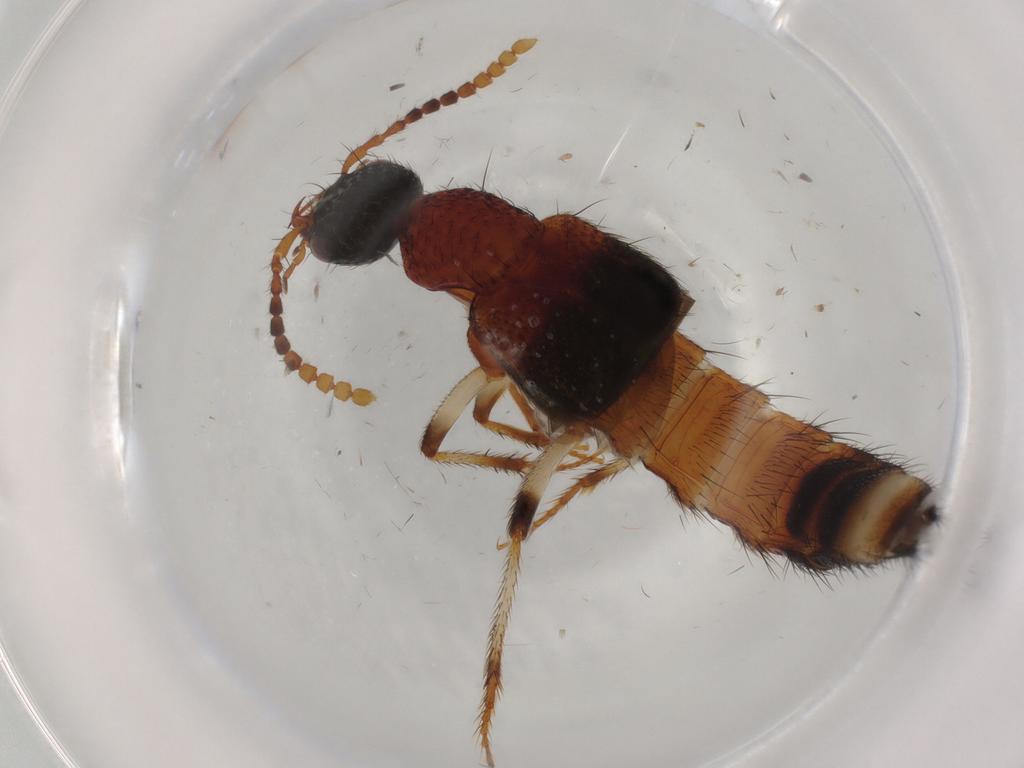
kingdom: Animalia
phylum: Arthropoda
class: Insecta
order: Coleoptera
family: Staphylinidae
